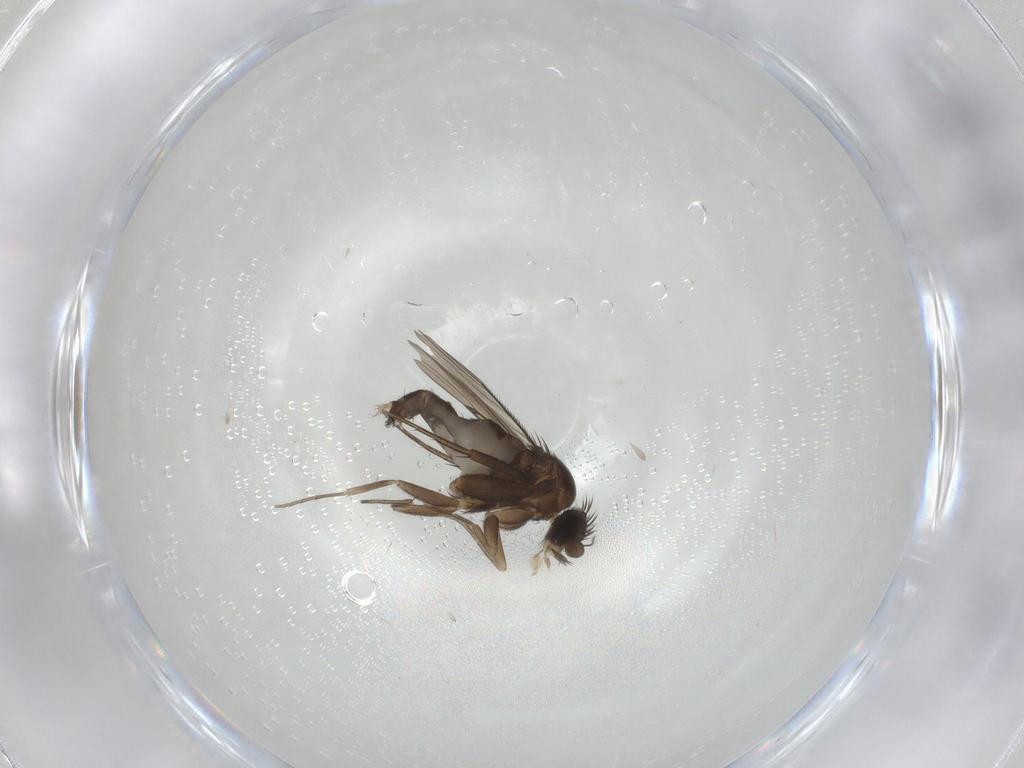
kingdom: Animalia
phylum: Arthropoda
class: Insecta
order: Diptera
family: Phoridae
